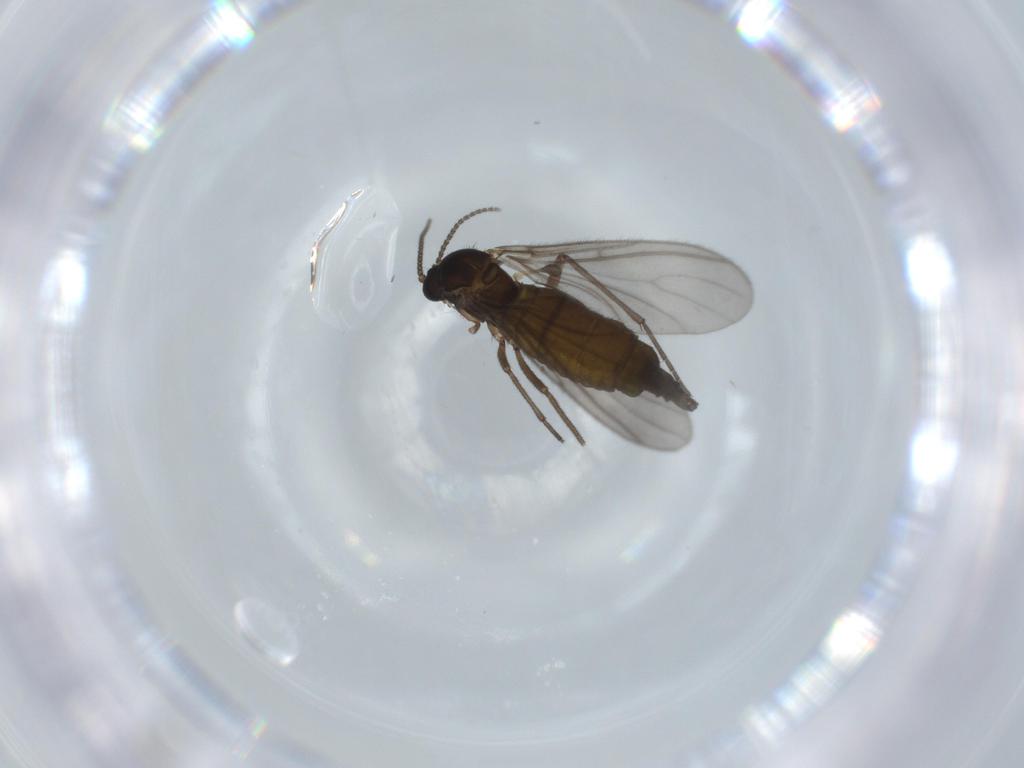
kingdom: Animalia
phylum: Arthropoda
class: Insecta
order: Diptera
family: Sciaridae
